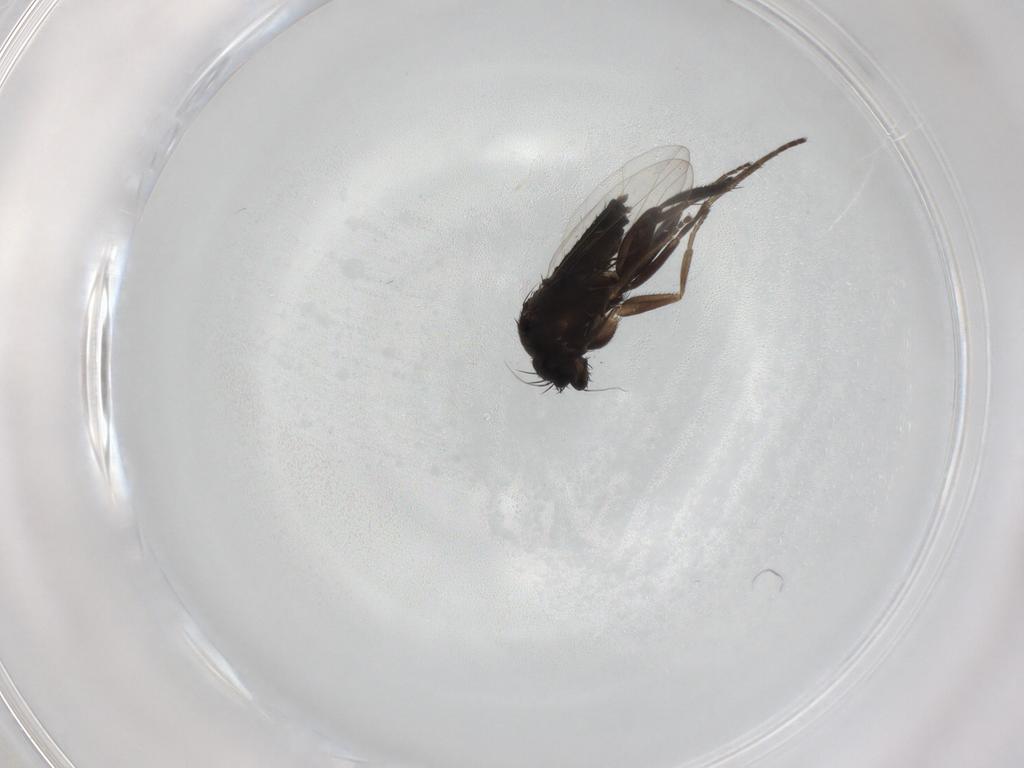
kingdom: Animalia
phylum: Arthropoda
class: Insecta
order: Diptera
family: Phoridae
